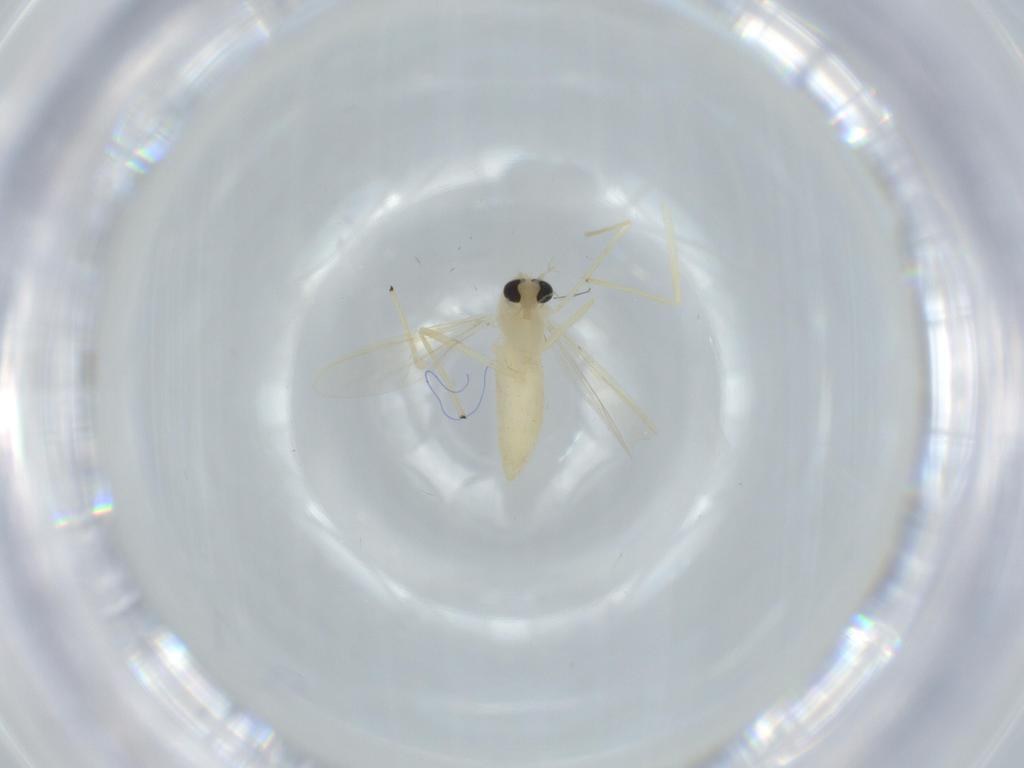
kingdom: Animalia
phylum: Arthropoda
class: Insecta
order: Diptera
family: Chironomidae
